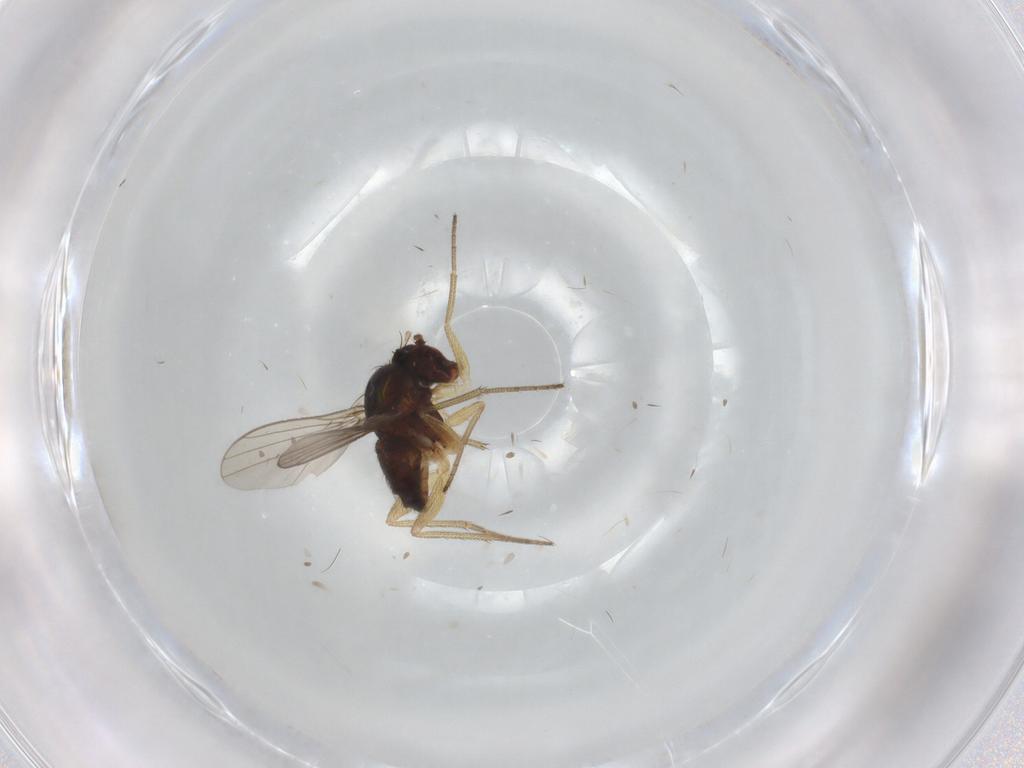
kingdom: Animalia
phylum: Arthropoda
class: Insecta
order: Diptera
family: Dolichopodidae
